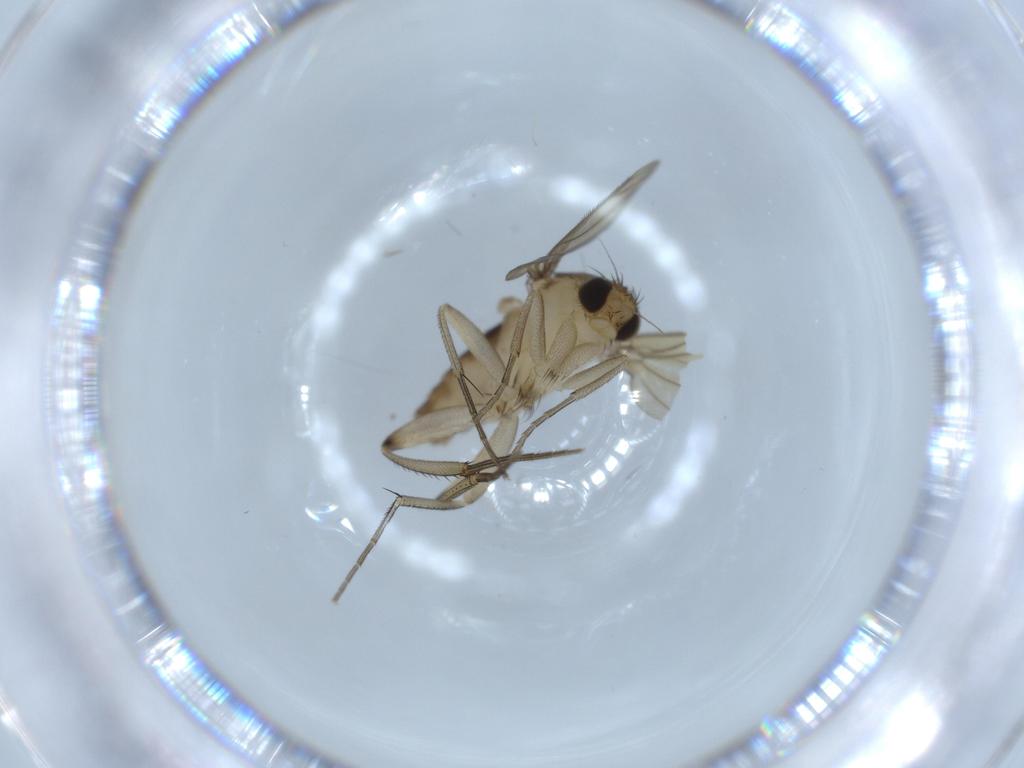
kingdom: Animalia
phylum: Arthropoda
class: Insecta
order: Diptera
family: Phoridae
